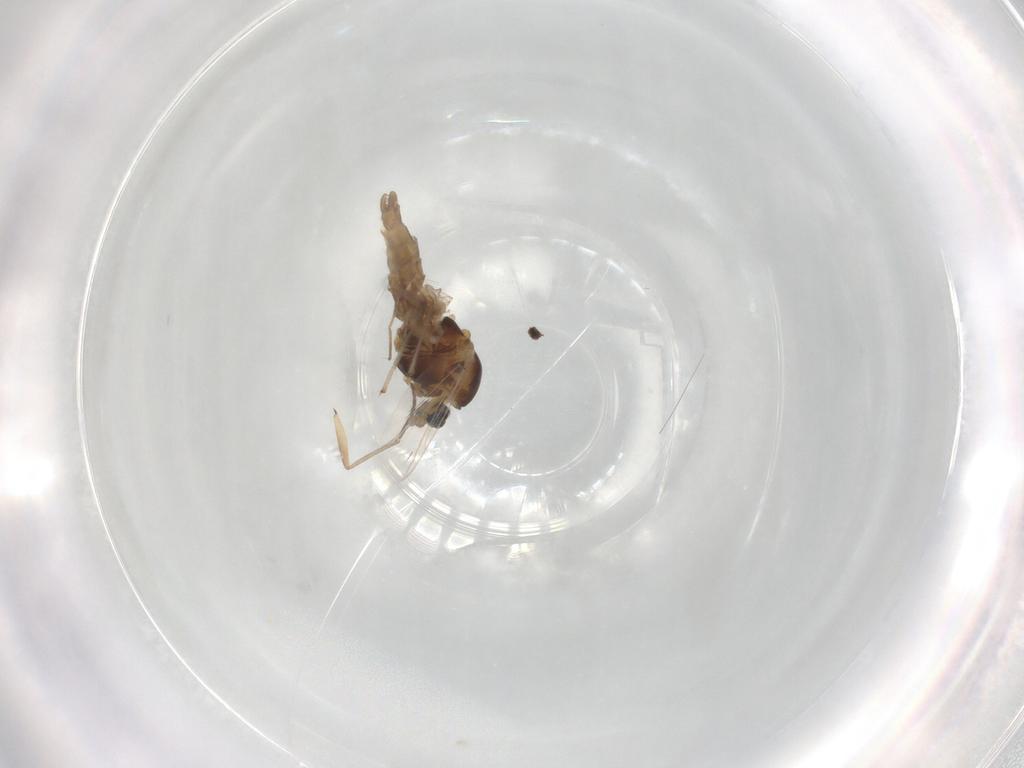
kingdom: Animalia
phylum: Arthropoda
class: Insecta
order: Diptera
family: Chironomidae
